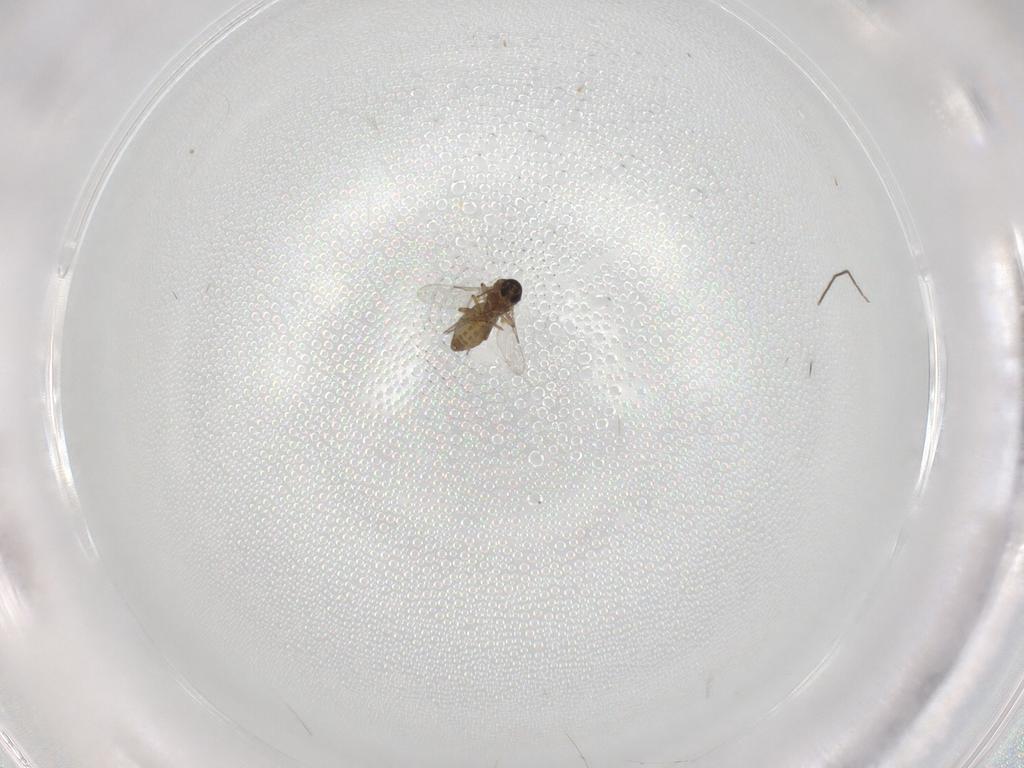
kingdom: Animalia
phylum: Arthropoda
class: Insecta
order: Diptera
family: Ceratopogonidae
